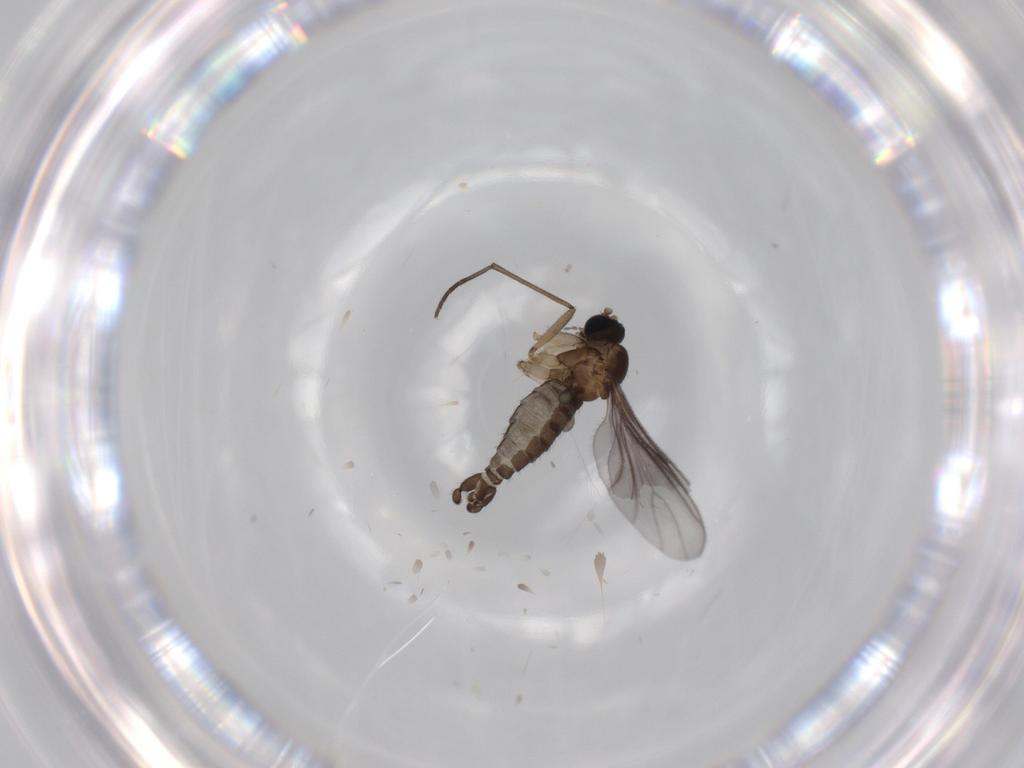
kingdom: Animalia
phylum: Arthropoda
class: Insecta
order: Diptera
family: Sciaridae
